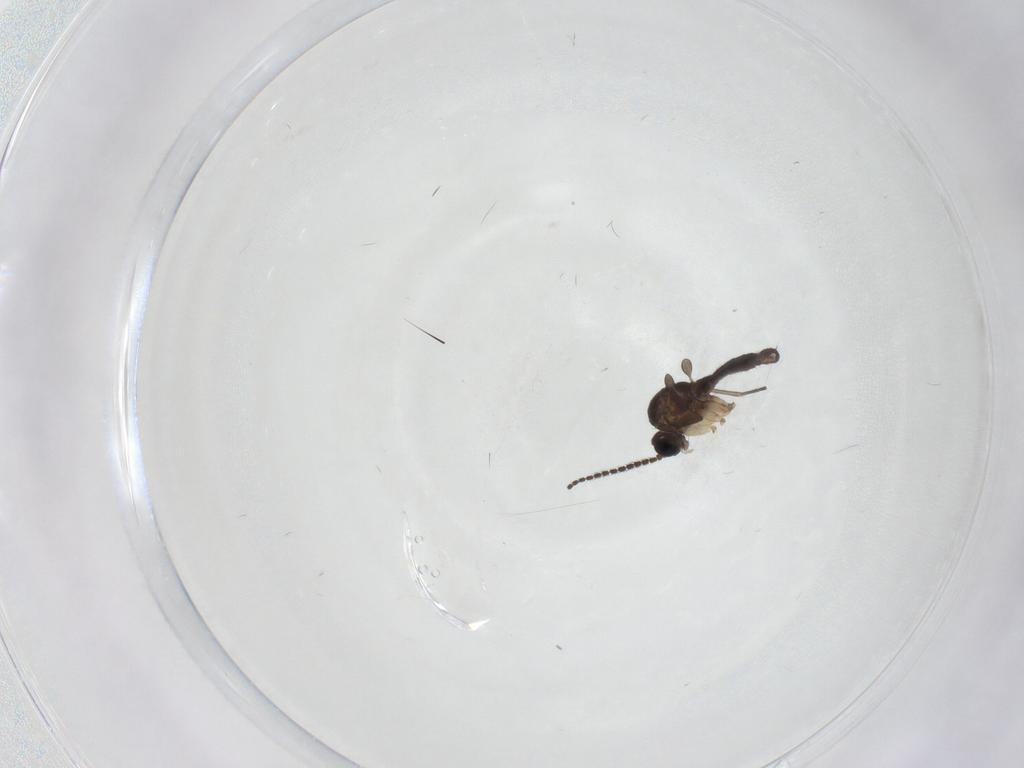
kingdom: Animalia
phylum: Arthropoda
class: Insecta
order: Diptera
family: Sciaridae
